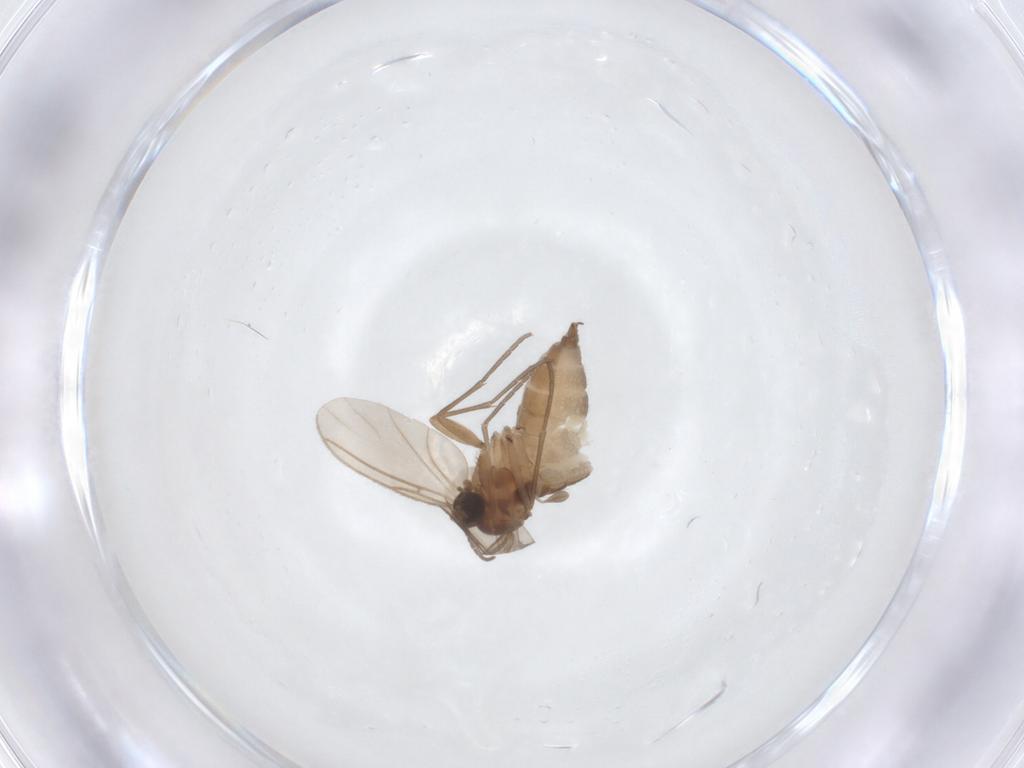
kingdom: Animalia
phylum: Arthropoda
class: Insecta
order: Diptera
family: Sciaridae
